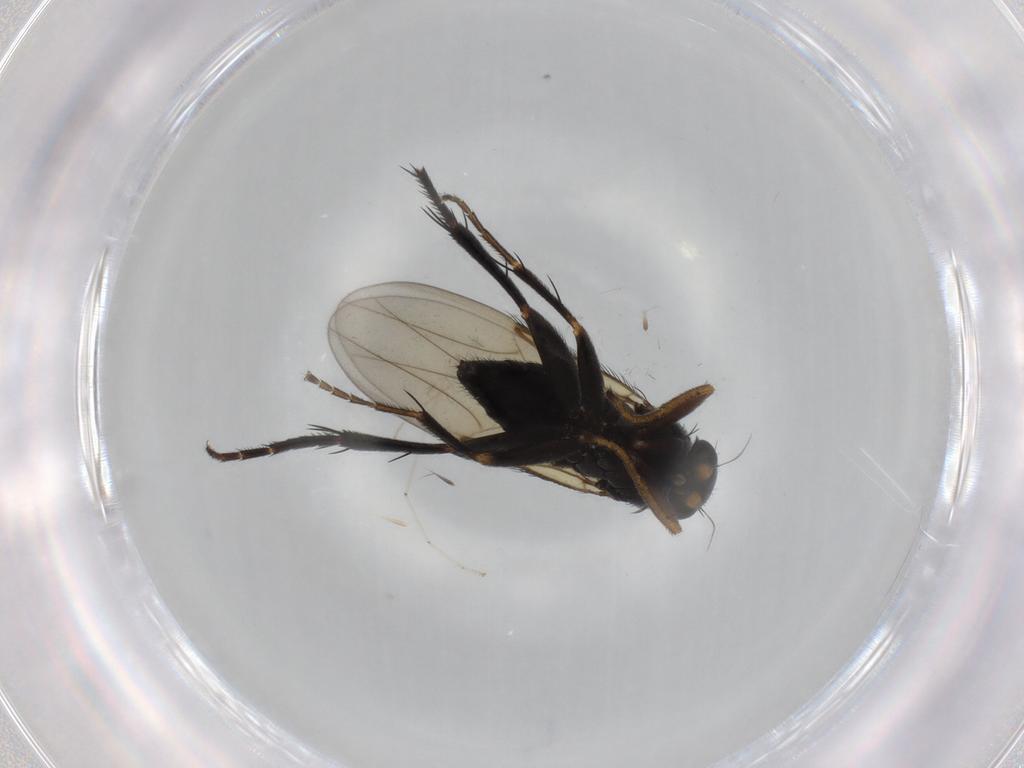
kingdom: Animalia
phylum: Arthropoda
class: Insecta
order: Diptera
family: Phoridae
